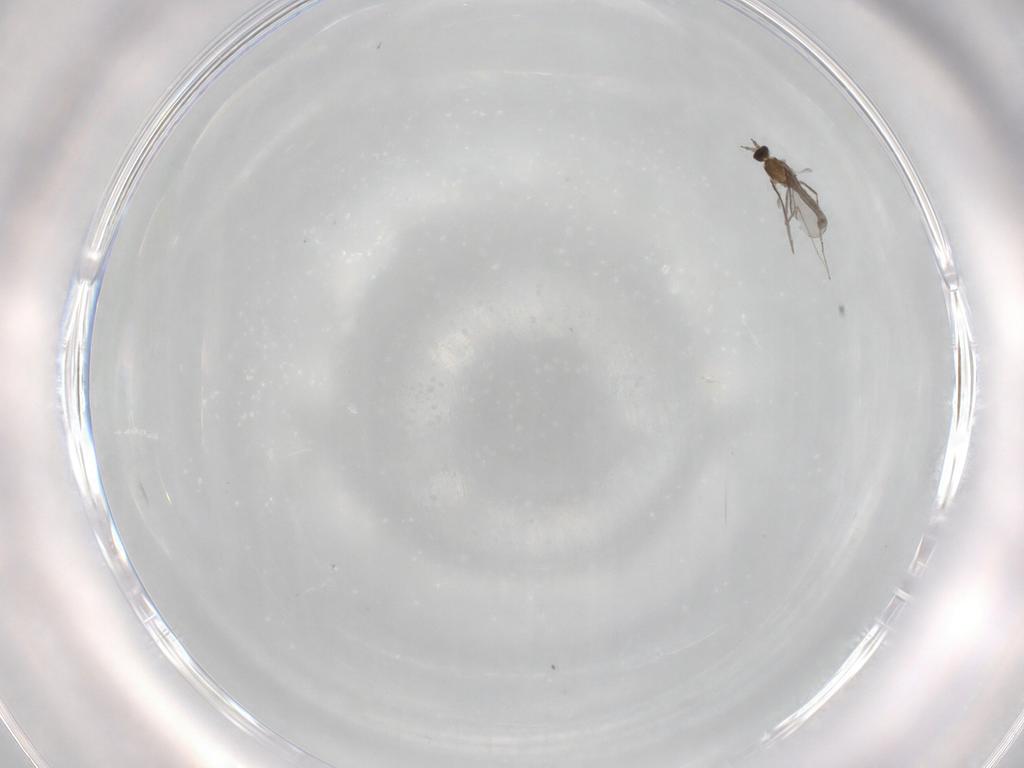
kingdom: Animalia
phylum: Arthropoda
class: Insecta
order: Diptera
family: Cecidomyiidae
